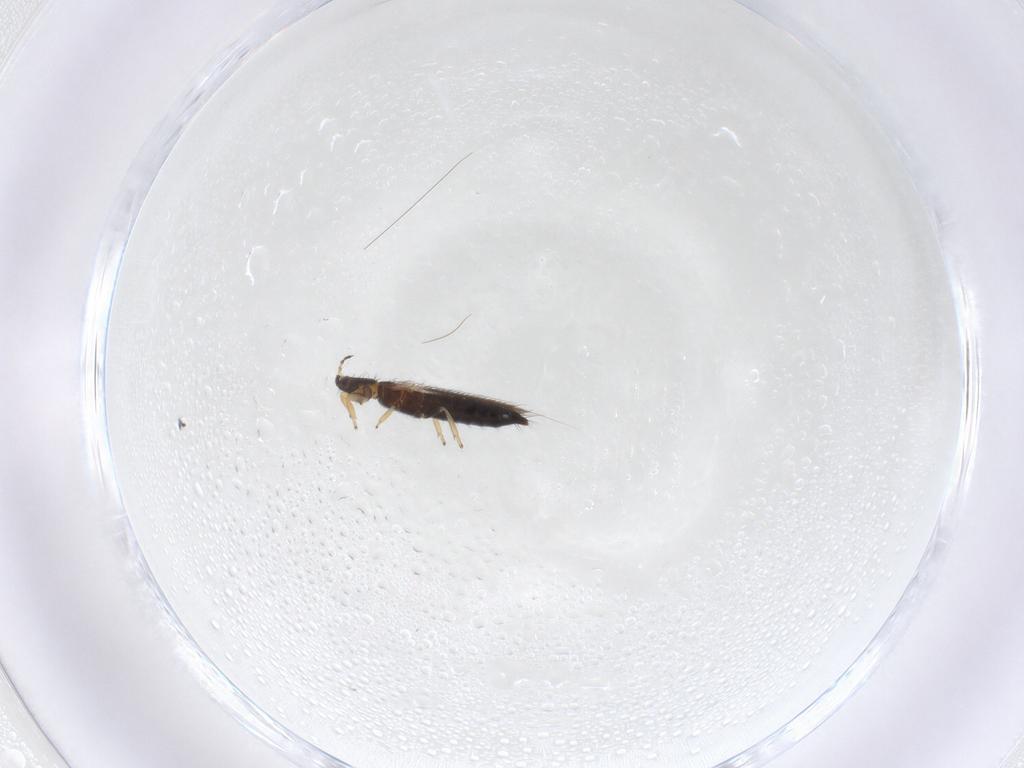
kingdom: Animalia
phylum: Arthropoda
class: Insecta
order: Thysanoptera
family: Thripidae
